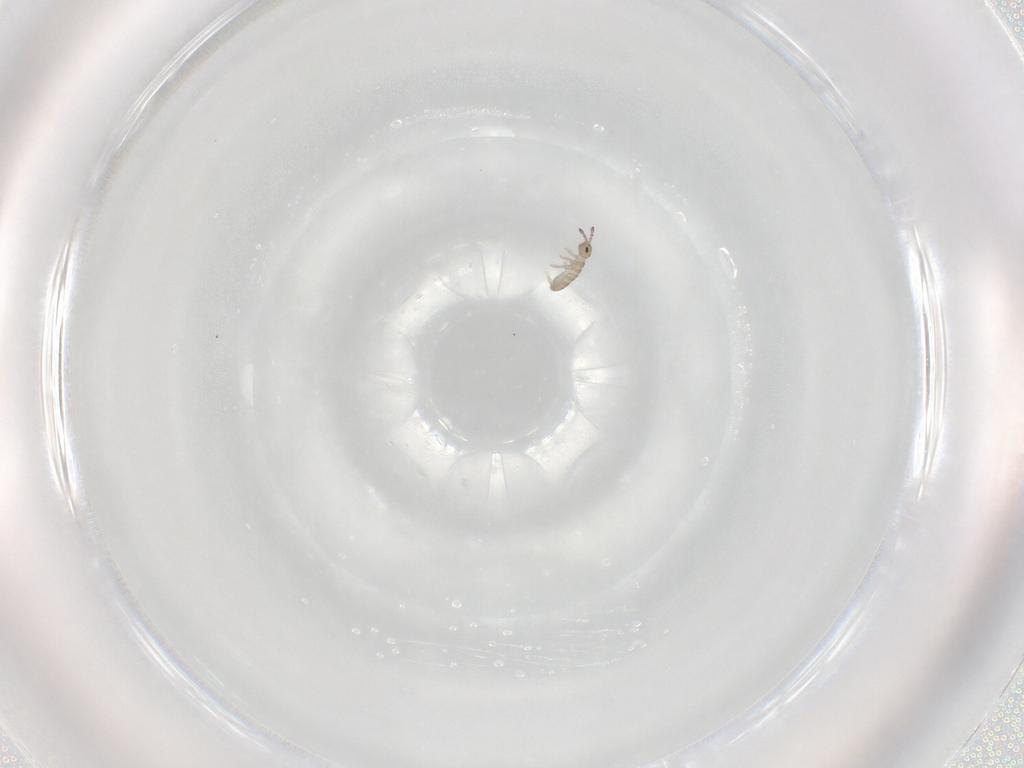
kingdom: Animalia
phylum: Arthropoda
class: Collembola
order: Entomobryomorpha
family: Isotomidae
